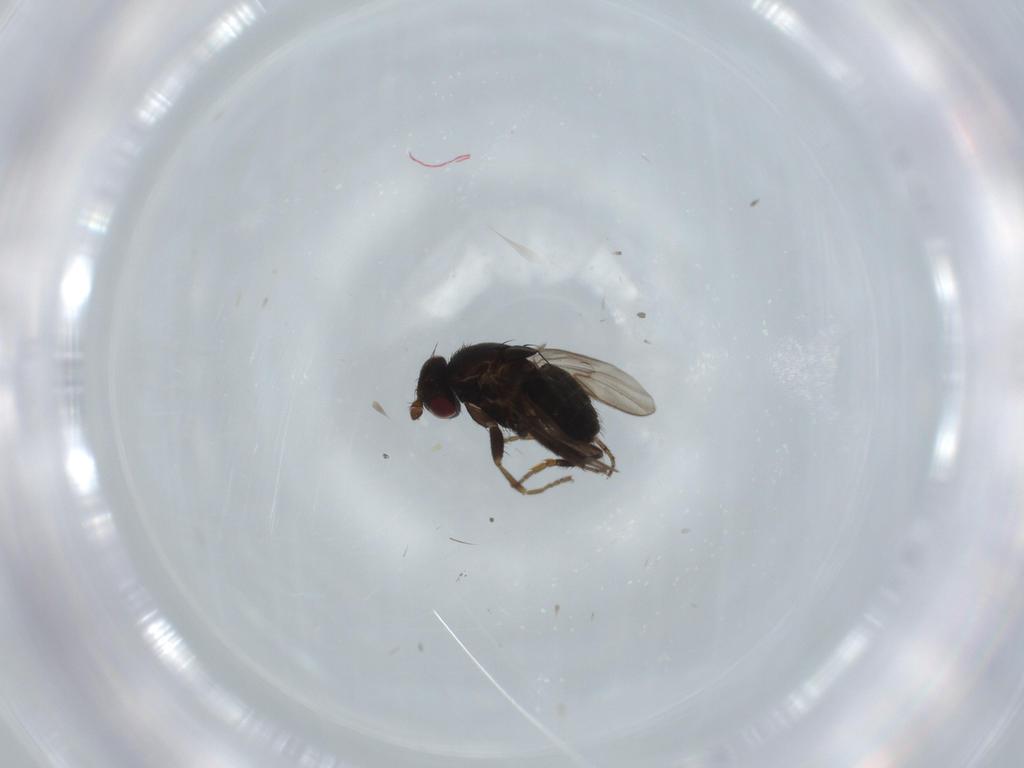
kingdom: Animalia
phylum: Arthropoda
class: Insecta
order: Diptera
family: Sphaeroceridae
